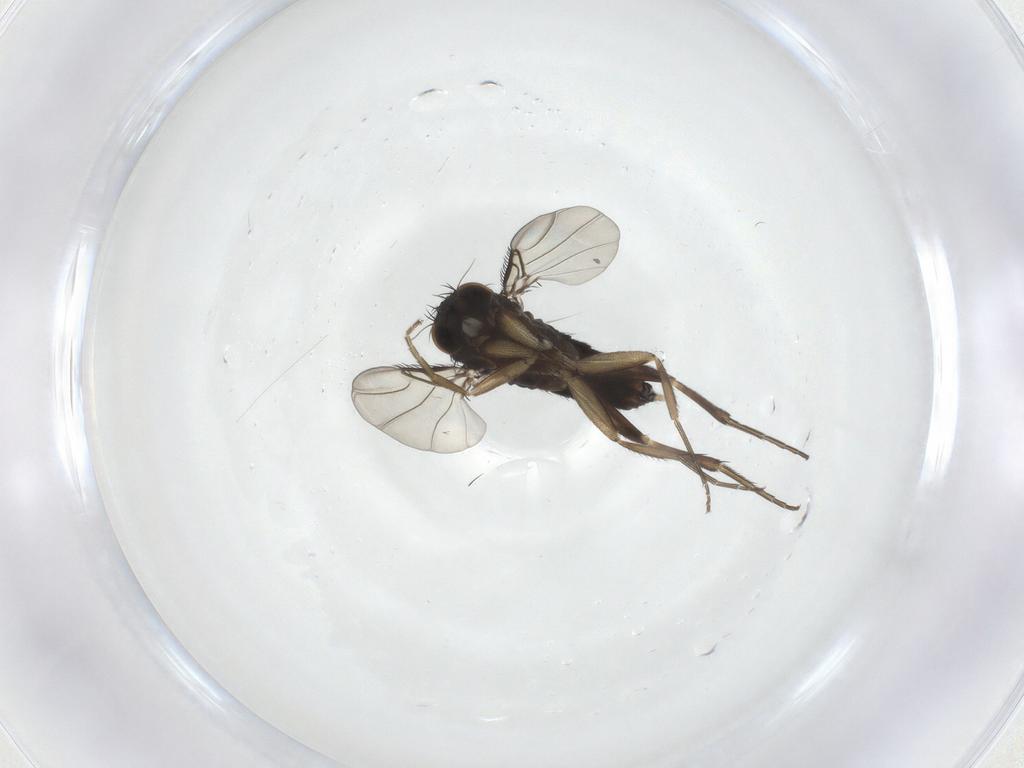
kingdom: Animalia
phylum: Arthropoda
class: Insecta
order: Diptera
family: Phoridae
